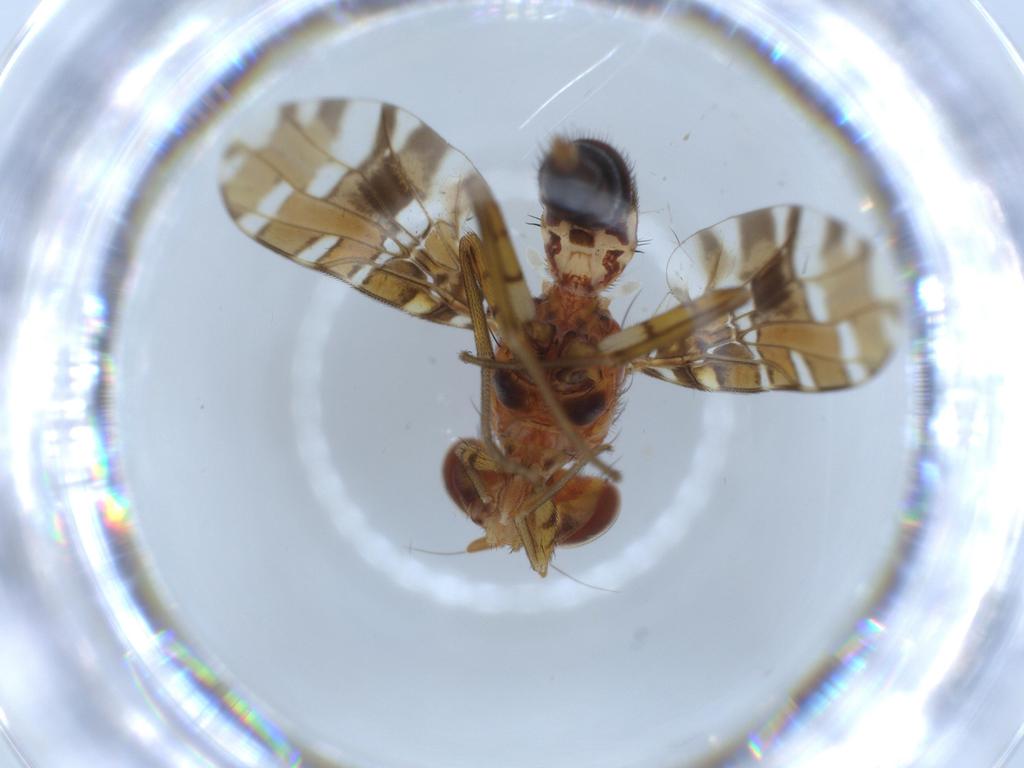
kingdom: Animalia
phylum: Arthropoda
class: Insecta
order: Diptera
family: Ulidiidae
